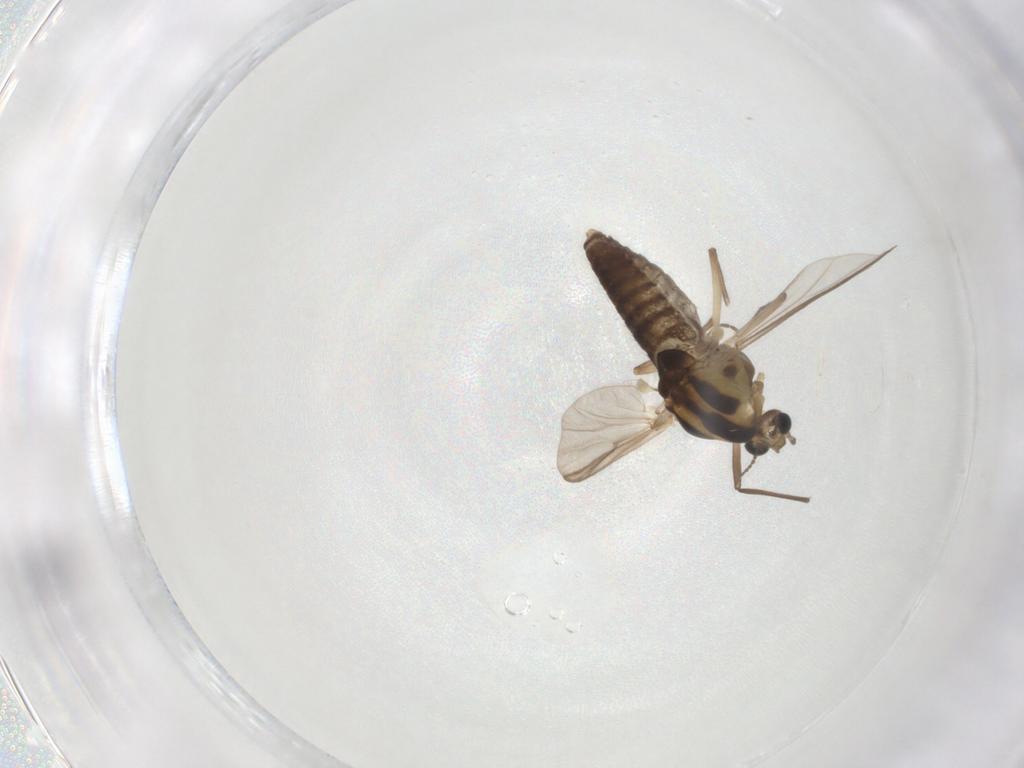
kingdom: Animalia
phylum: Arthropoda
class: Insecta
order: Diptera
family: Chironomidae
